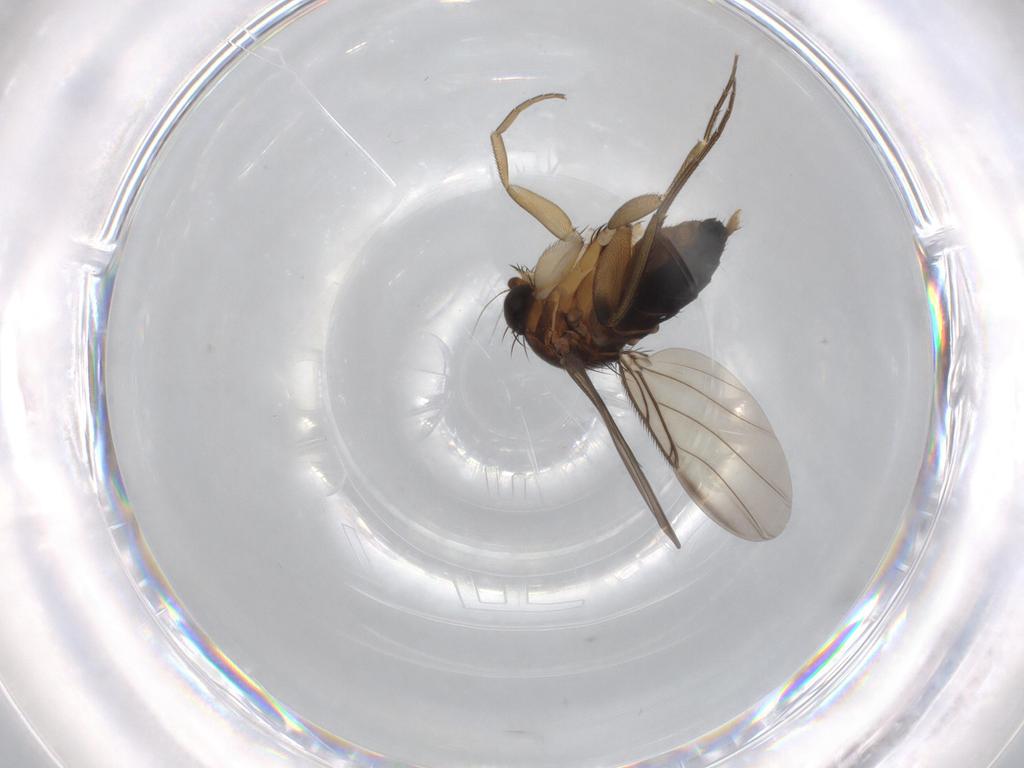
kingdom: Animalia
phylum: Arthropoda
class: Insecta
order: Diptera
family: Phoridae
